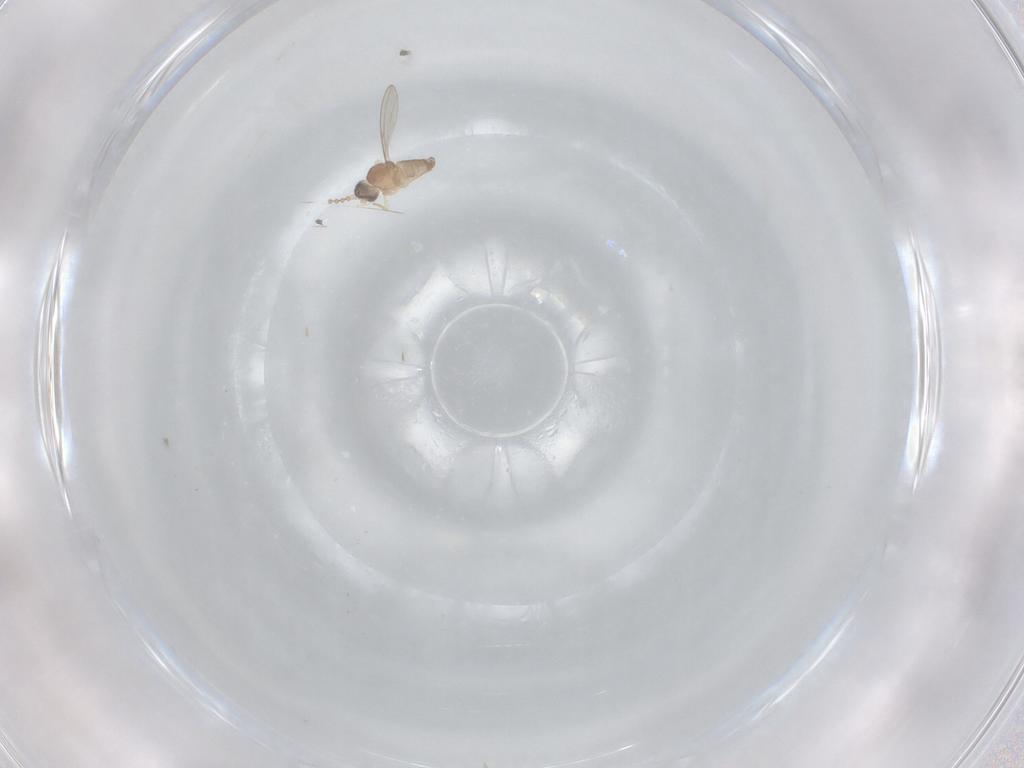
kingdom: Animalia
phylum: Arthropoda
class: Insecta
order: Diptera
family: Cecidomyiidae
